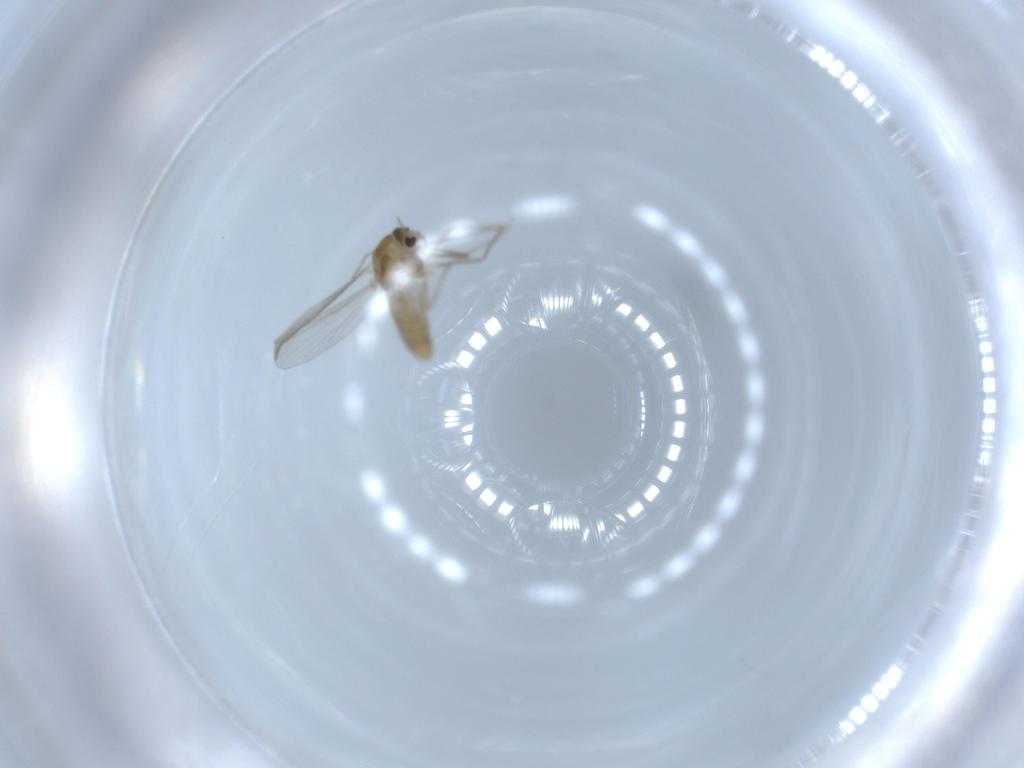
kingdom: Animalia
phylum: Arthropoda
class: Insecta
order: Diptera
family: Chironomidae
